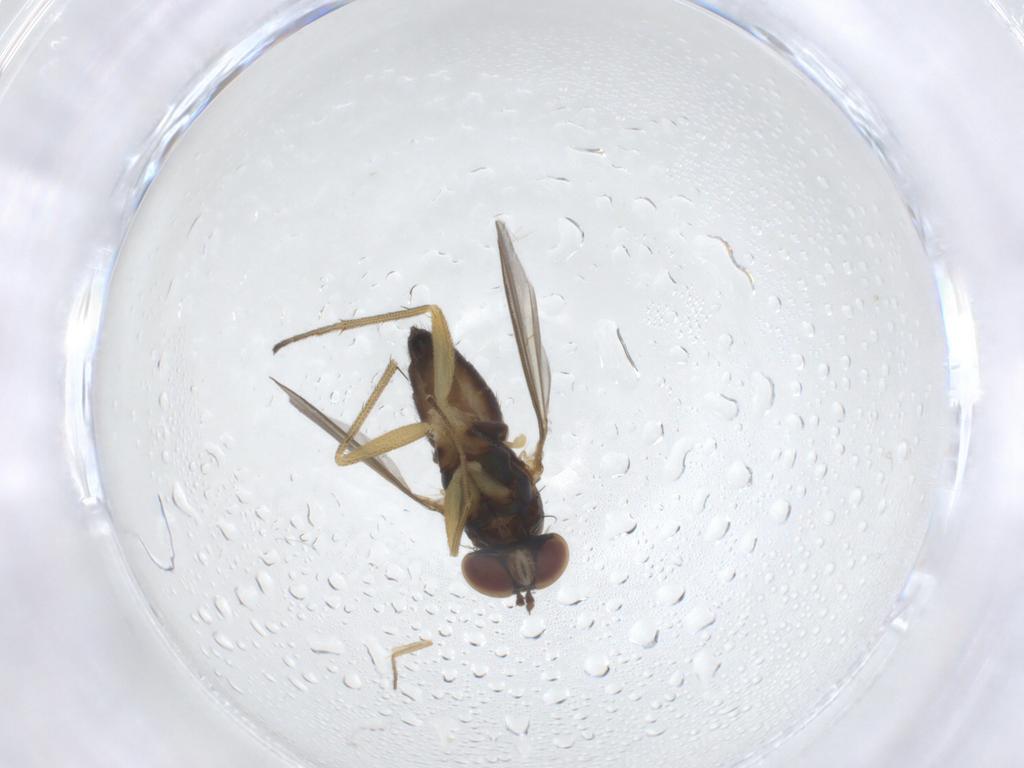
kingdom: Animalia
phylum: Arthropoda
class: Insecta
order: Diptera
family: Dolichopodidae
